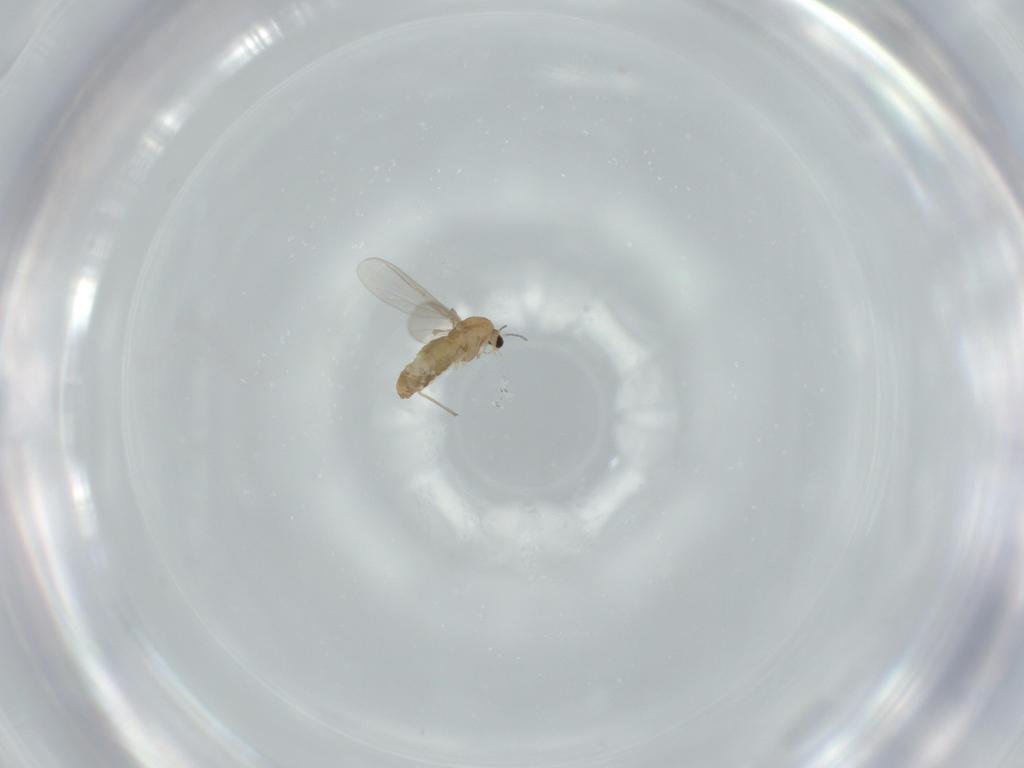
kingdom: Animalia
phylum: Arthropoda
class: Insecta
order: Diptera
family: Chironomidae
